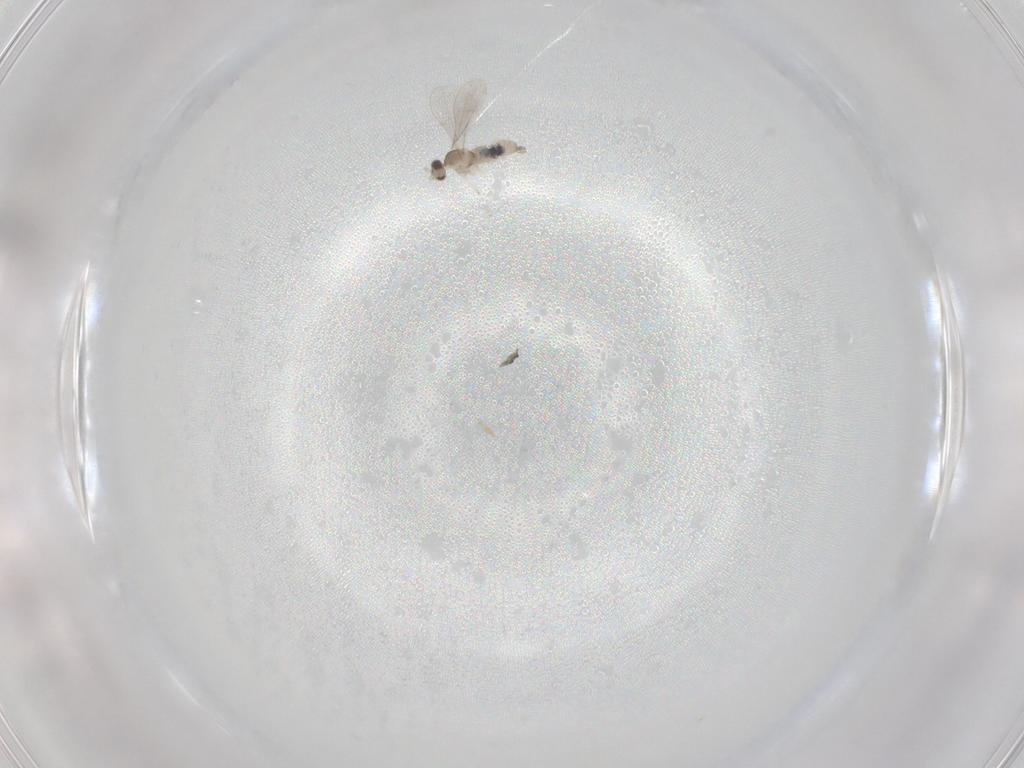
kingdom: Animalia
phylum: Arthropoda
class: Insecta
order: Diptera
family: Cecidomyiidae
